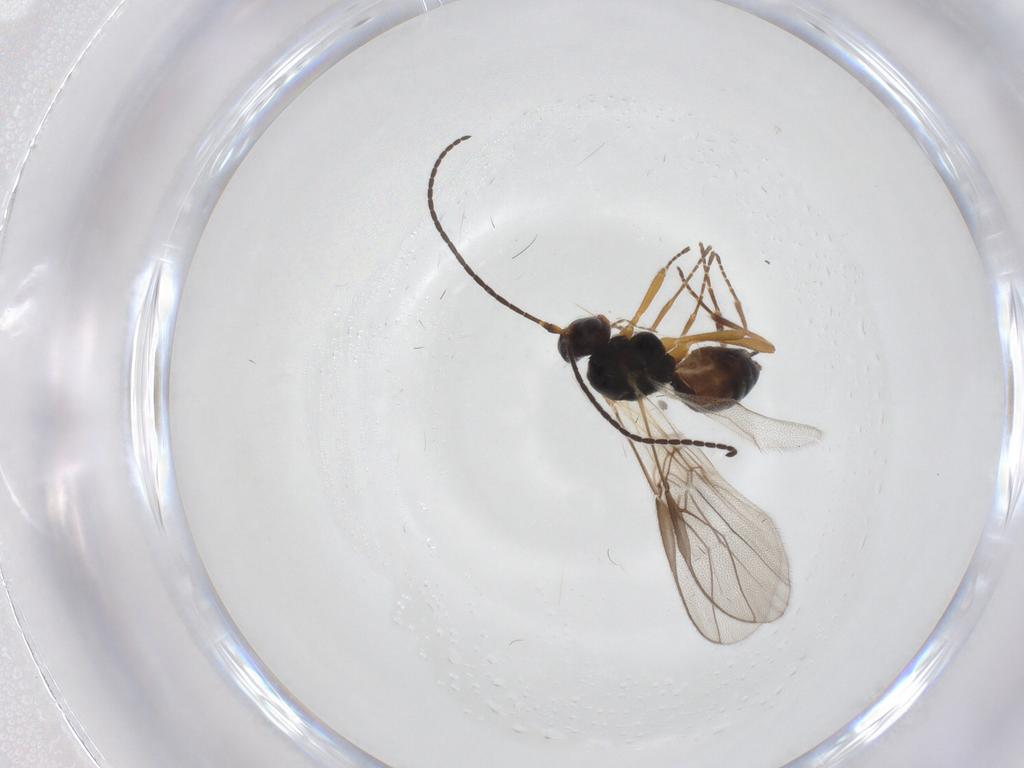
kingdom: Animalia
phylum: Arthropoda
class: Insecta
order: Hymenoptera
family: Braconidae
